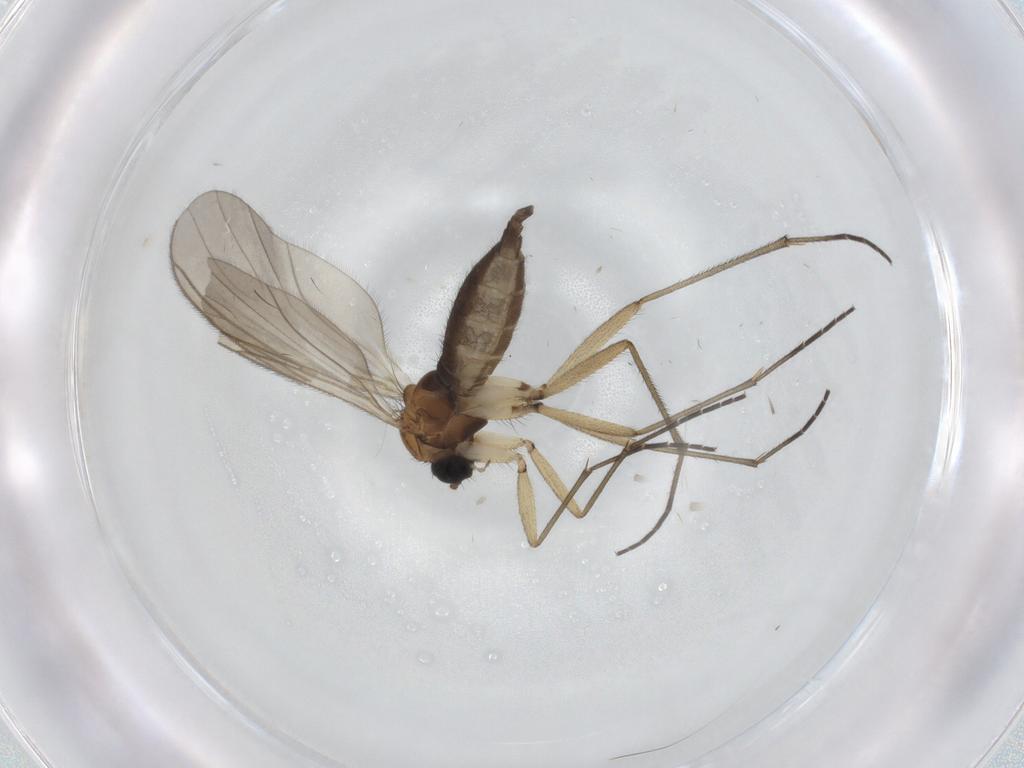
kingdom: Animalia
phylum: Arthropoda
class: Insecta
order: Diptera
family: Sciaridae
